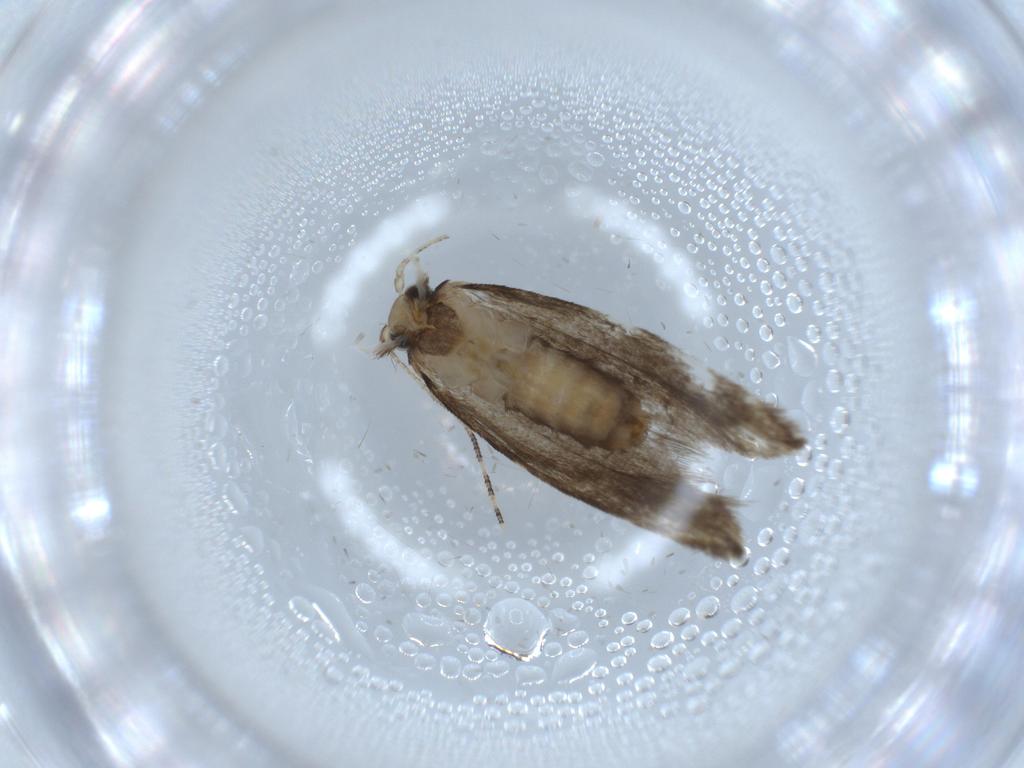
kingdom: Animalia
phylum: Arthropoda
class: Insecta
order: Lepidoptera
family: Tineidae
